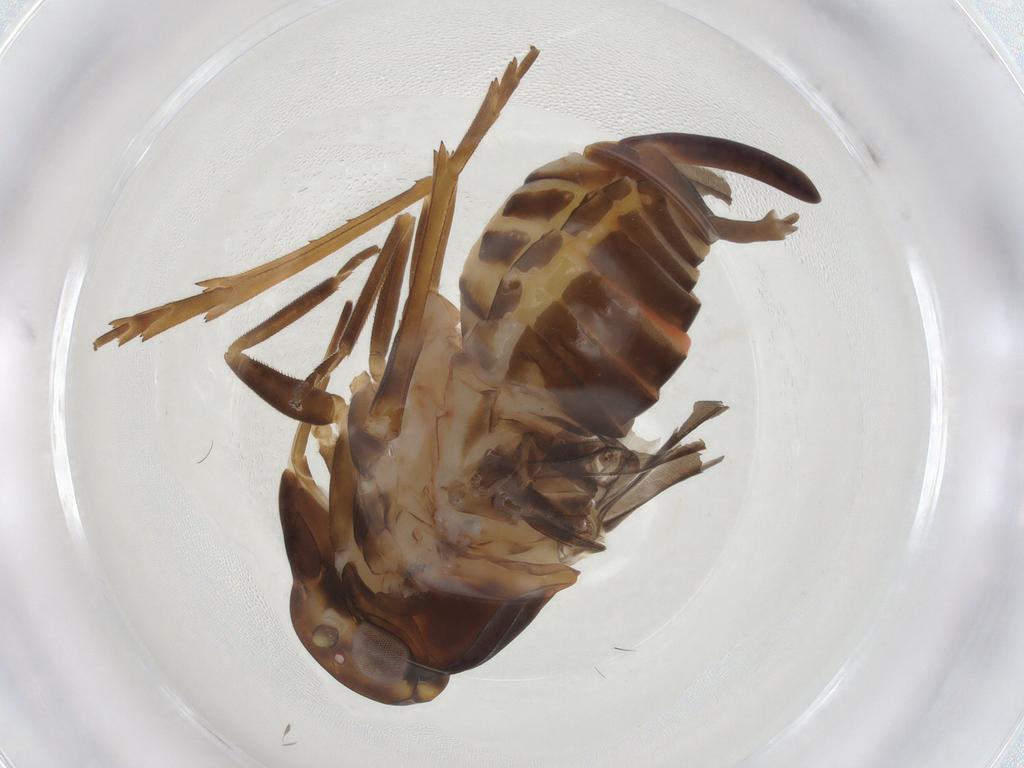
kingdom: Animalia
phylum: Arthropoda
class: Insecta
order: Hemiptera
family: Cixiidae
